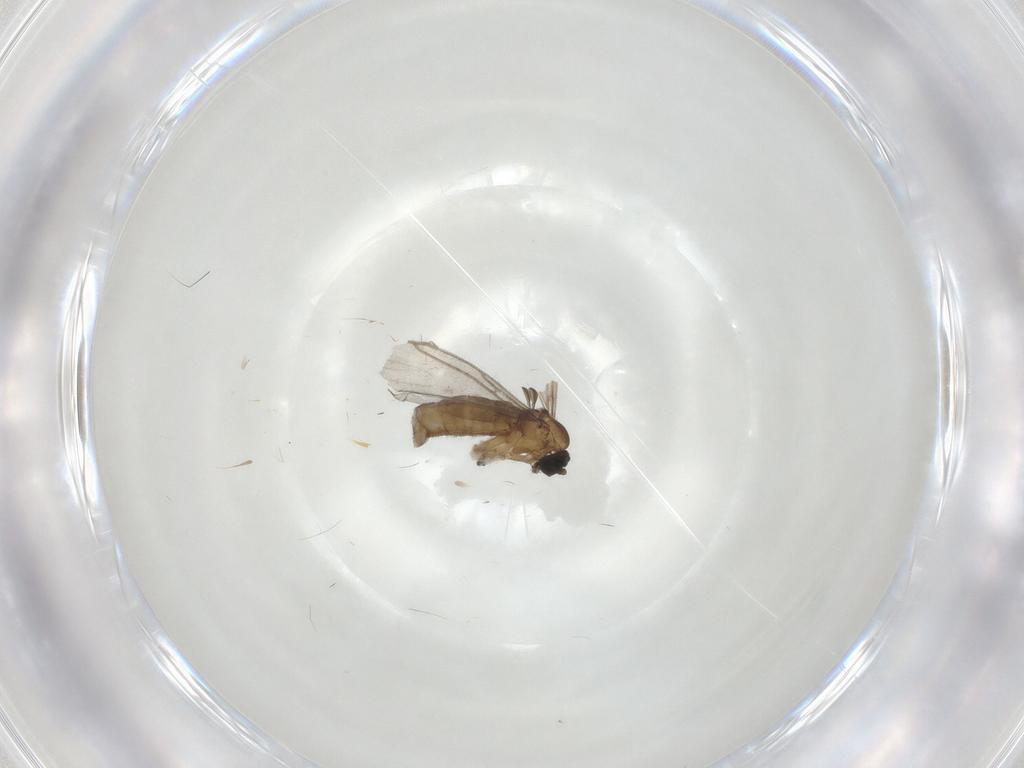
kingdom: Animalia
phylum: Arthropoda
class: Insecta
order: Diptera
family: Sciaridae
